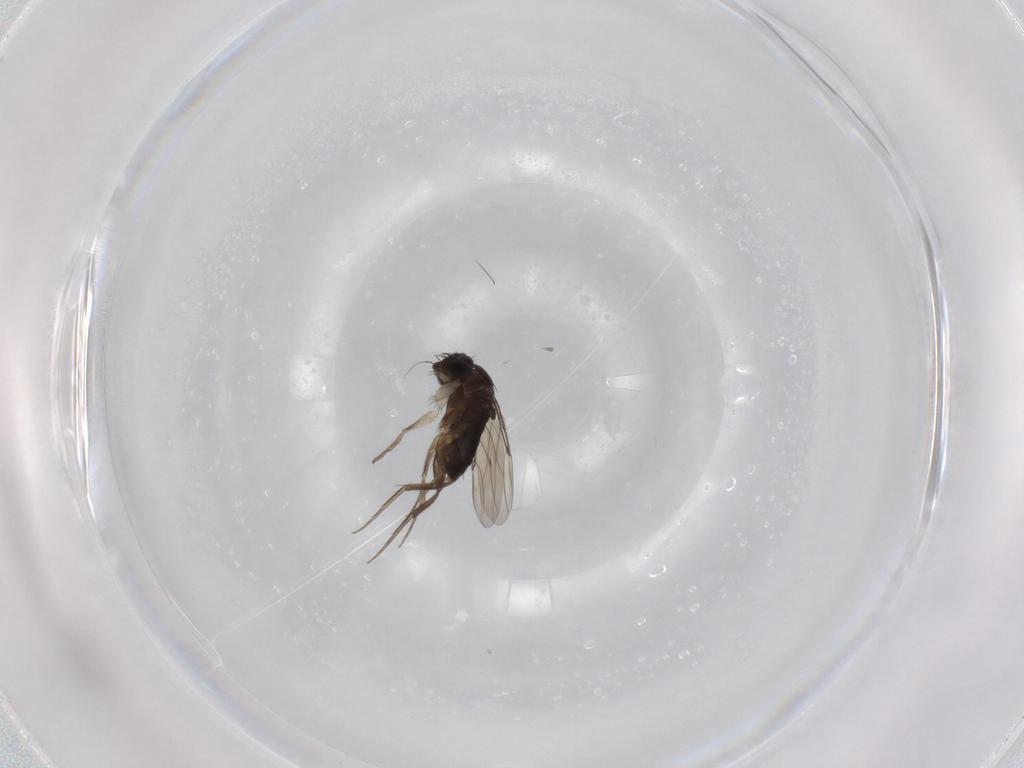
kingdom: Animalia
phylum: Arthropoda
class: Insecta
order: Diptera
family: Phoridae
